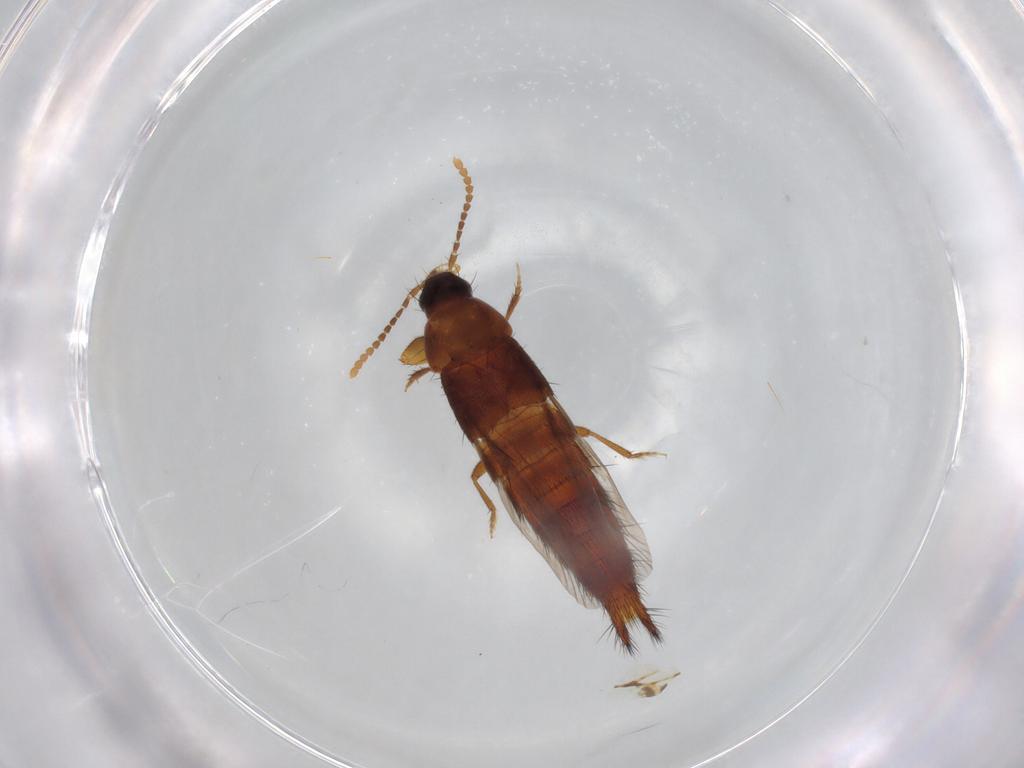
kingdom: Animalia
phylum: Arthropoda
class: Insecta
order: Coleoptera
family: Staphylinidae
